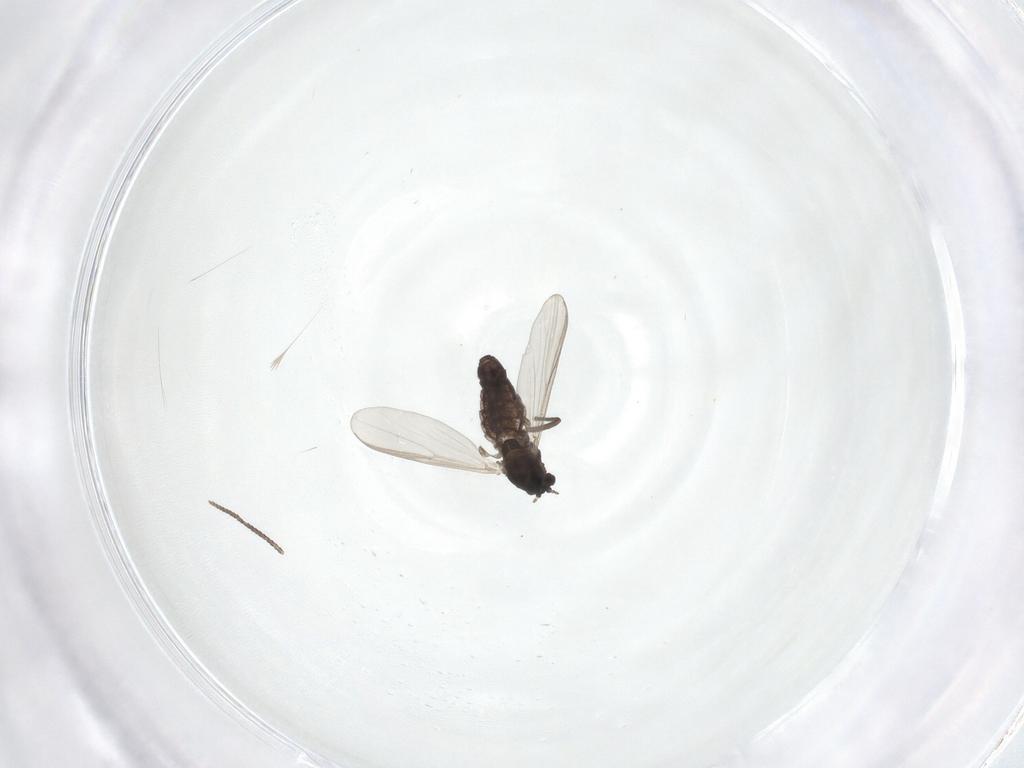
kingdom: Animalia
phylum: Arthropoda
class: Insecta
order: Diptera
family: Chironomidae
